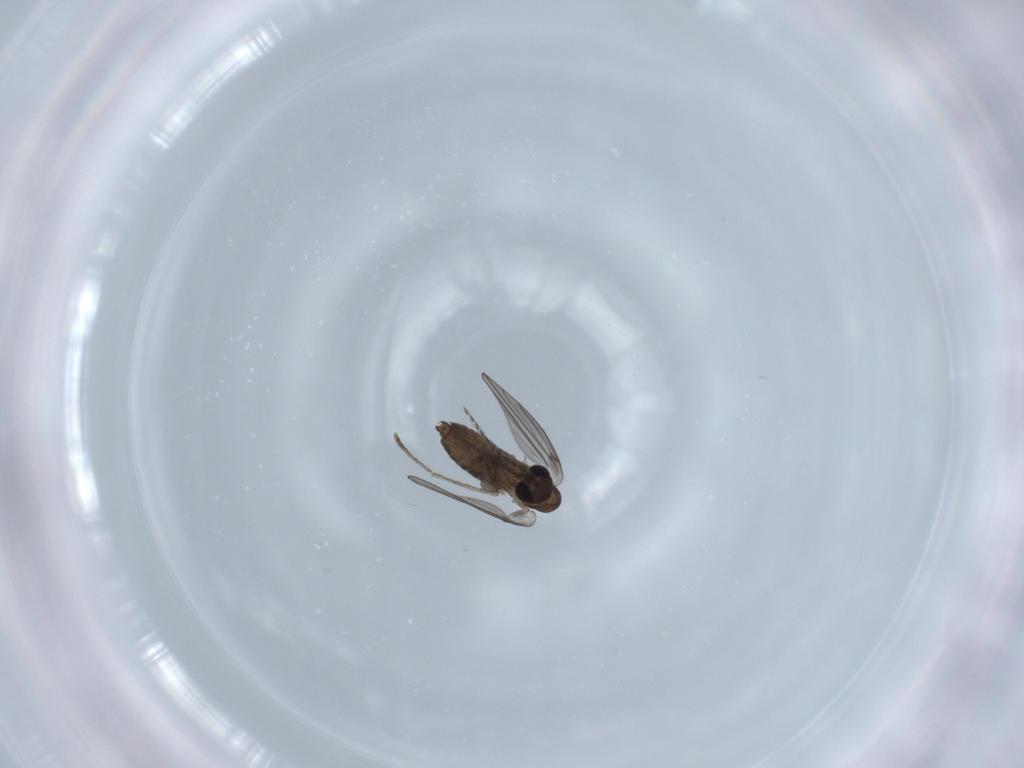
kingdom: Animalia
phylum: Arthropoda
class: Insecta
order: Diptera
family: Psychodidae
